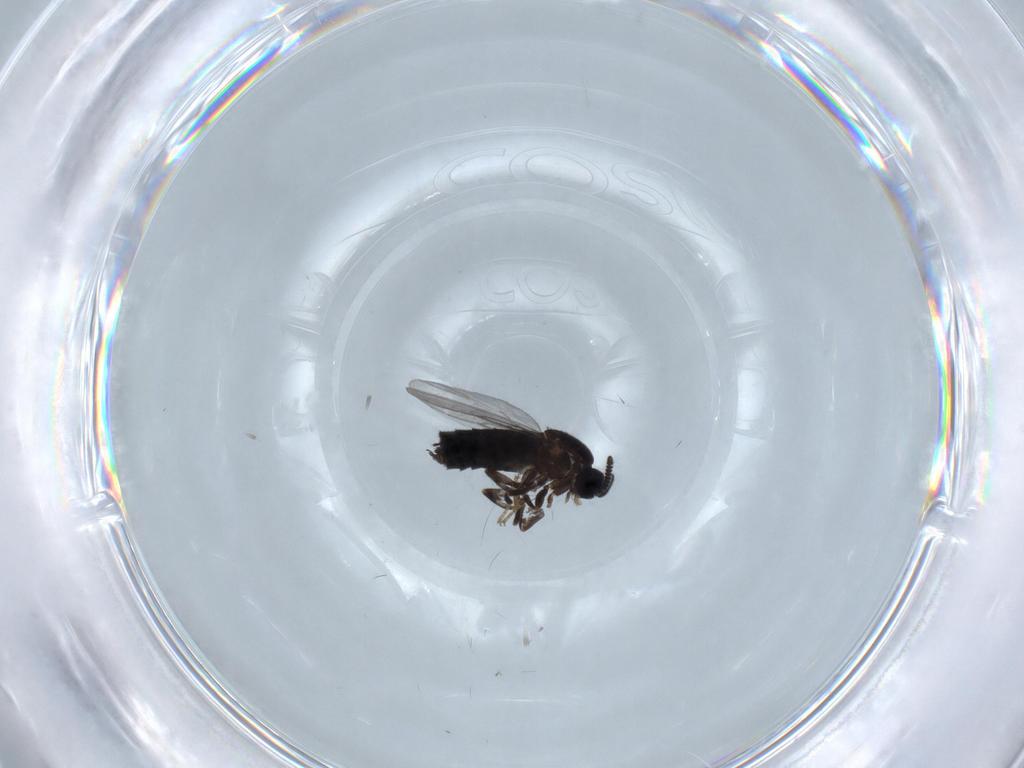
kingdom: Animalia
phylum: Arthropoda
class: Insecta
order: Diptera
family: Scatopsidae
